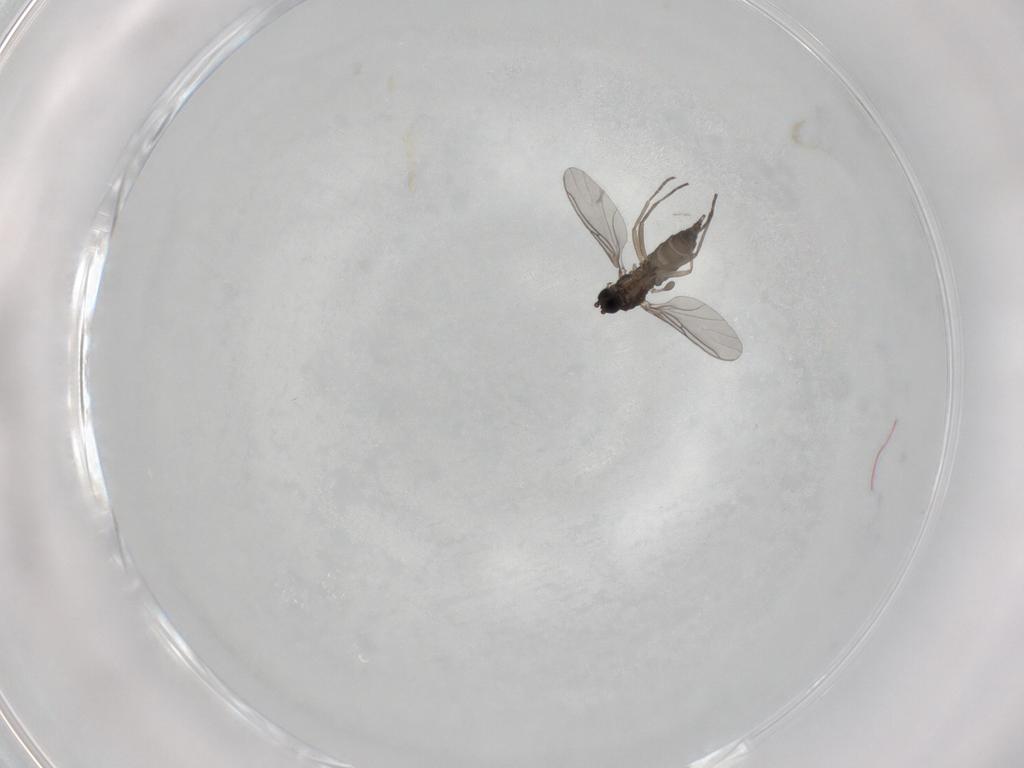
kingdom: Animalia
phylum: Arthropoda
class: Insecta
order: Diptera
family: Sciaridae
